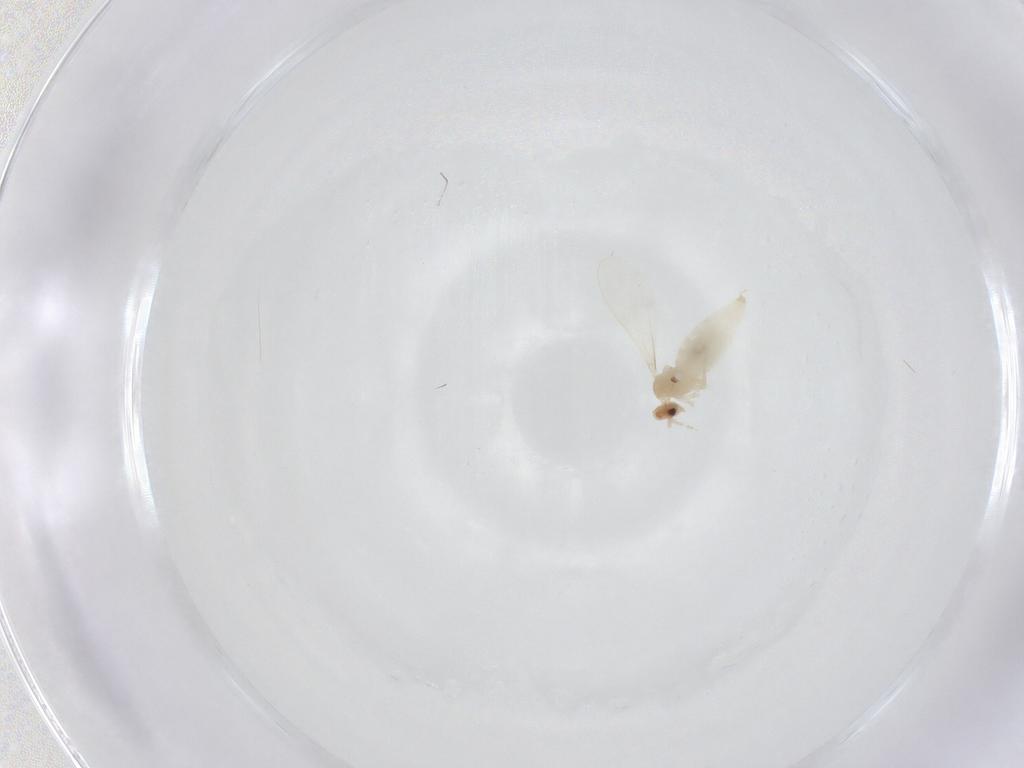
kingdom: Animalia
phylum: Arthropoda
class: Insecta
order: Diptera
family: Cecidomyiidae
